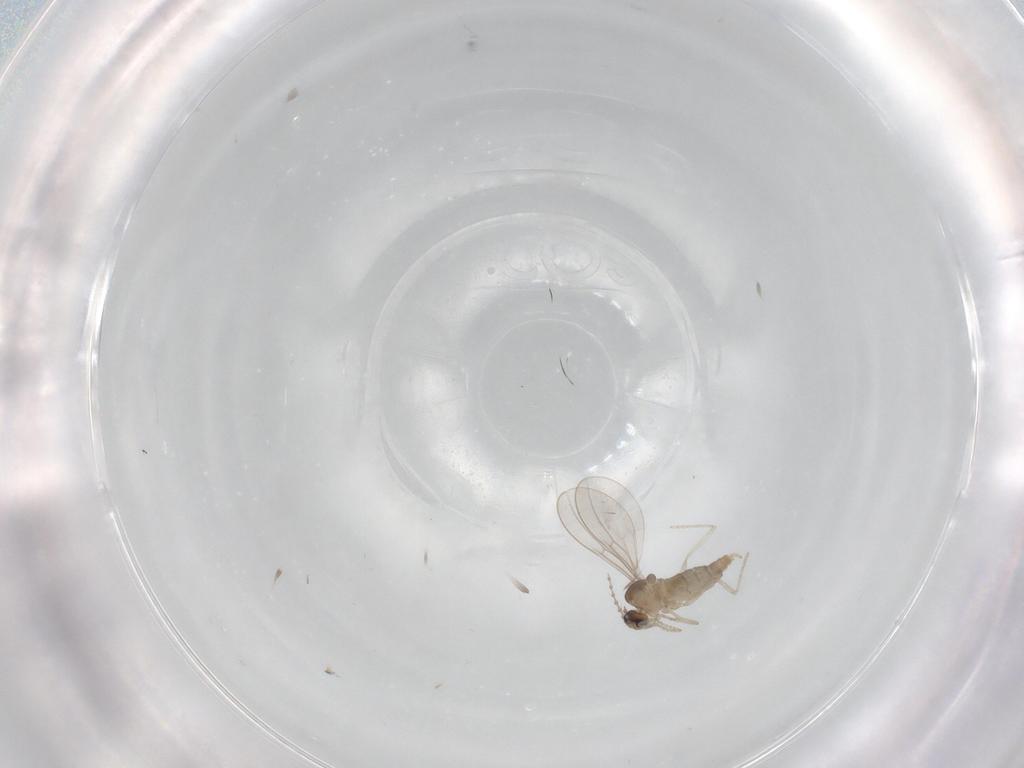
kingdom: Animalia
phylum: Arthropoda
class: Insecta
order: Diptera
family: Cecidomyiidae
